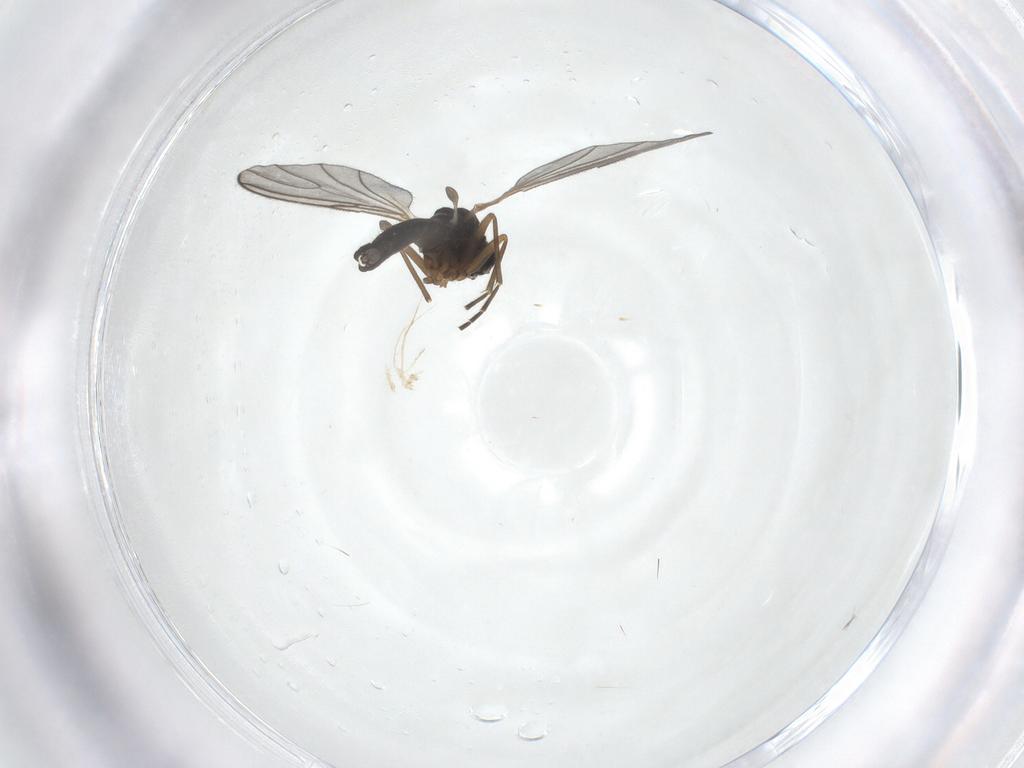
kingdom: Animalia
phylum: Arthropoda
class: Insecta
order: Diptera
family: Cecidomyiidae
